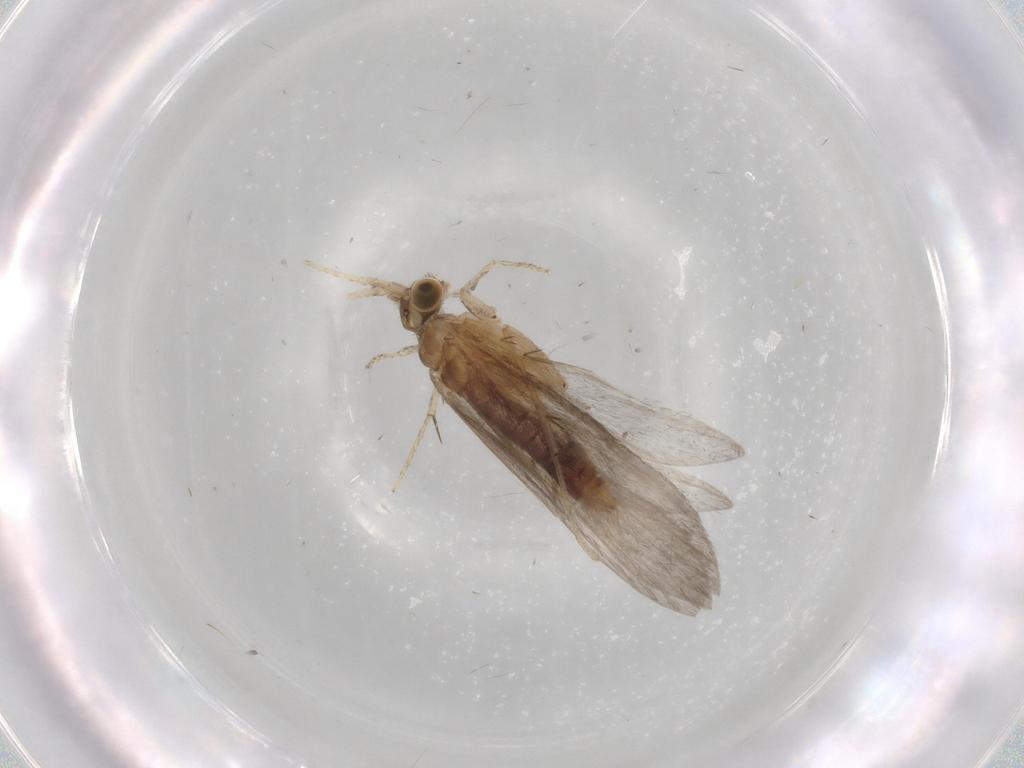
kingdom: Animalia
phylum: Arthropoda
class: Insecta
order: Trichoptera
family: Glossosomatidae
